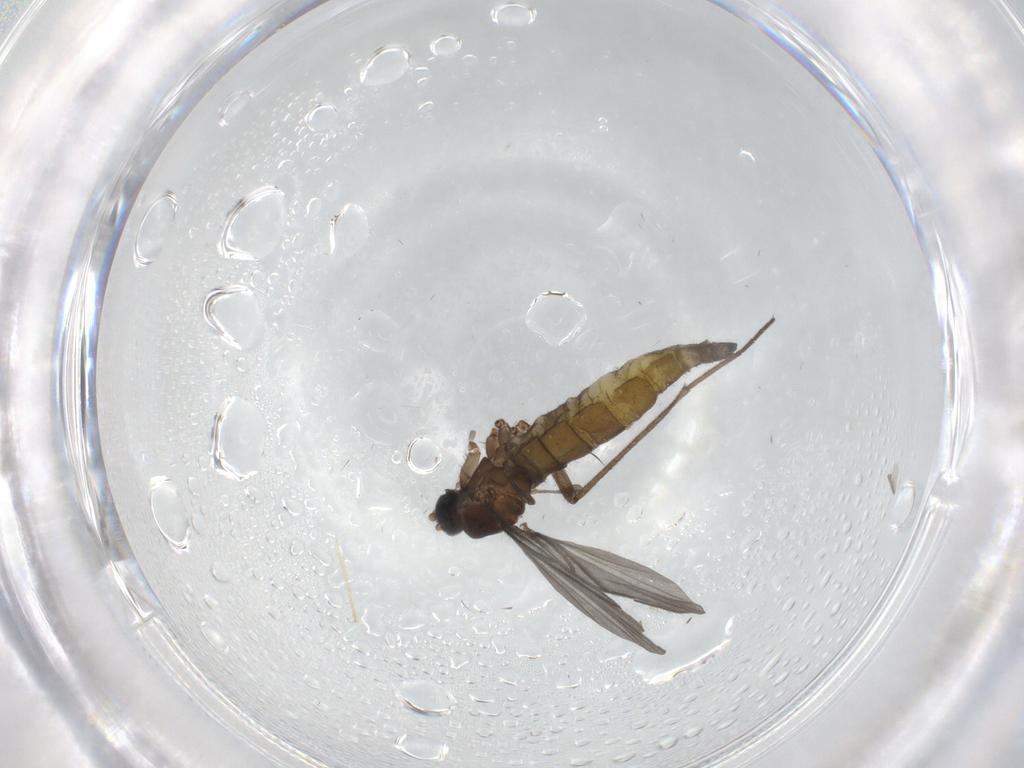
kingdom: Animalia
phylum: Arthropoda
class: Insecta
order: Diptera
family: Sciaridae
